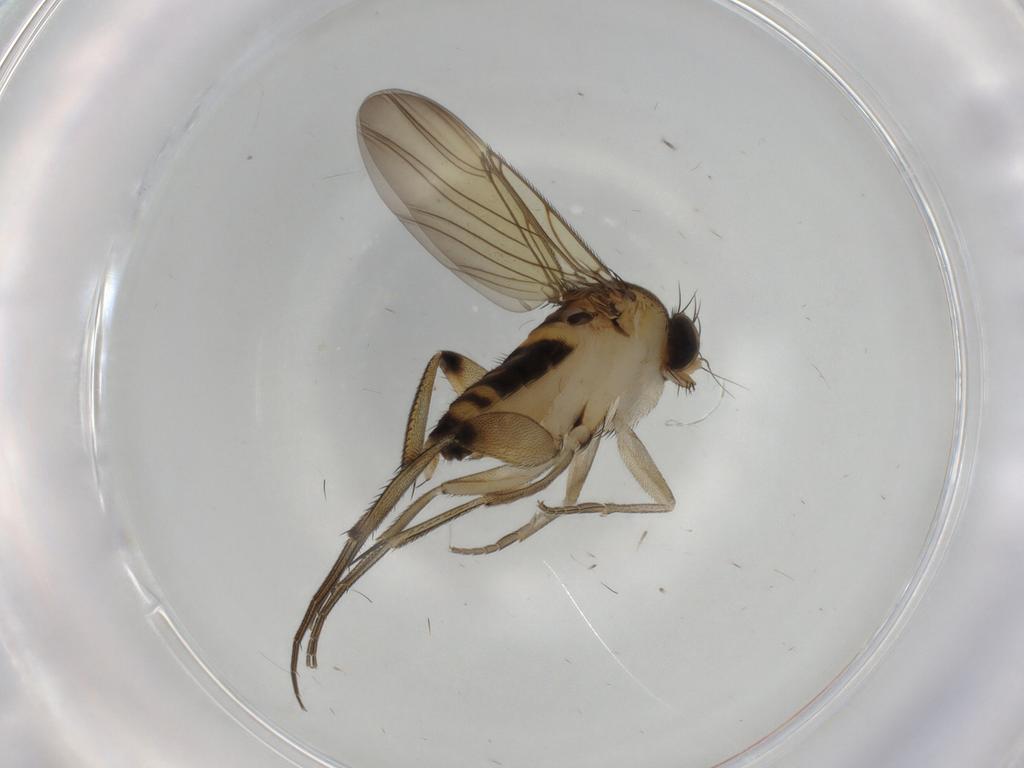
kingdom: Animalia
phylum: Arthropoda
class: Insecta
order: Diptera
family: Phoridae
